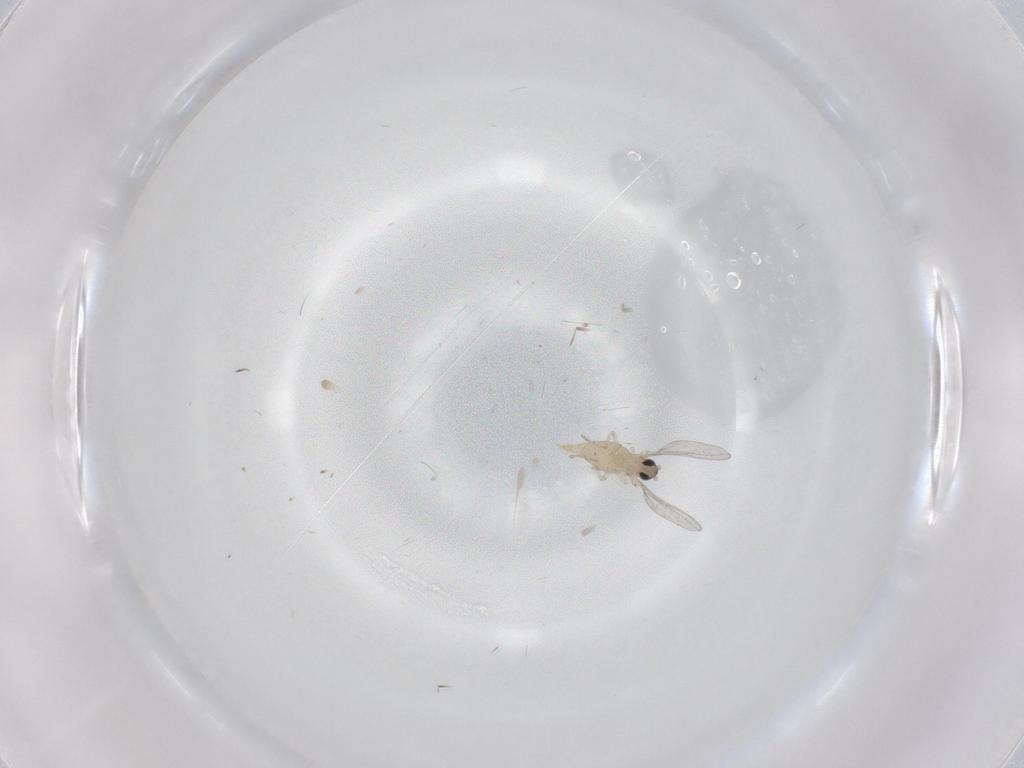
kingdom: Animalia
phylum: Arthropoda
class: Insecta
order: Diptera
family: Cecidomyiidae
